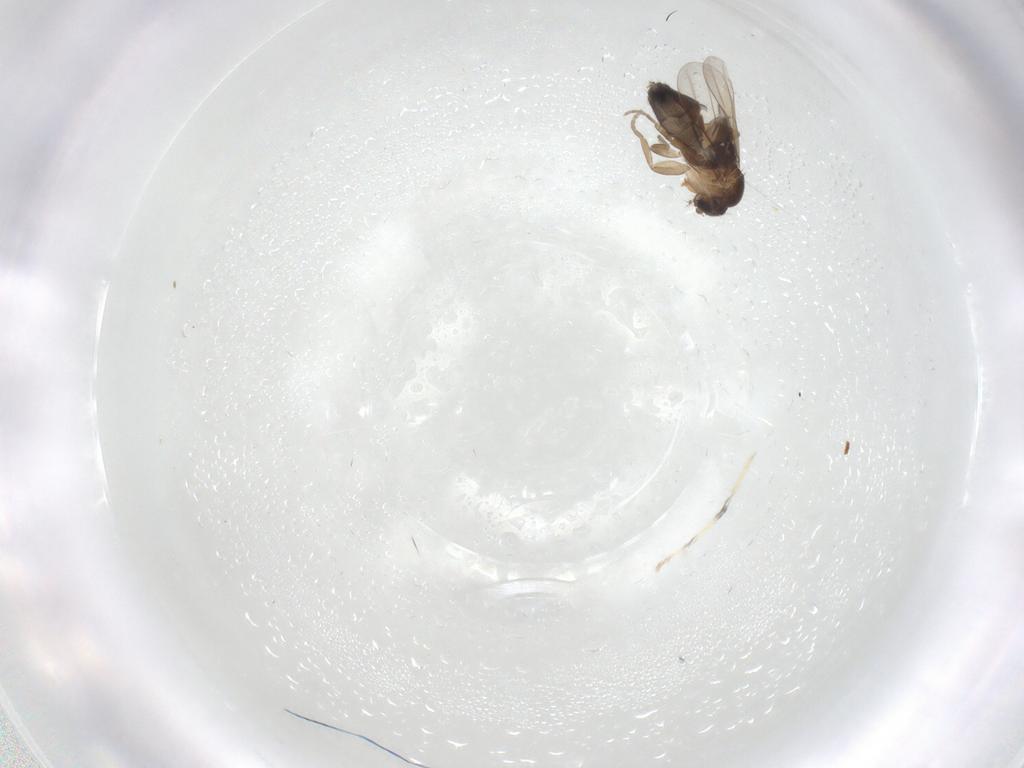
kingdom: Animalia
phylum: Arthropoda
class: Insecta
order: Diptera
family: Phoridae
